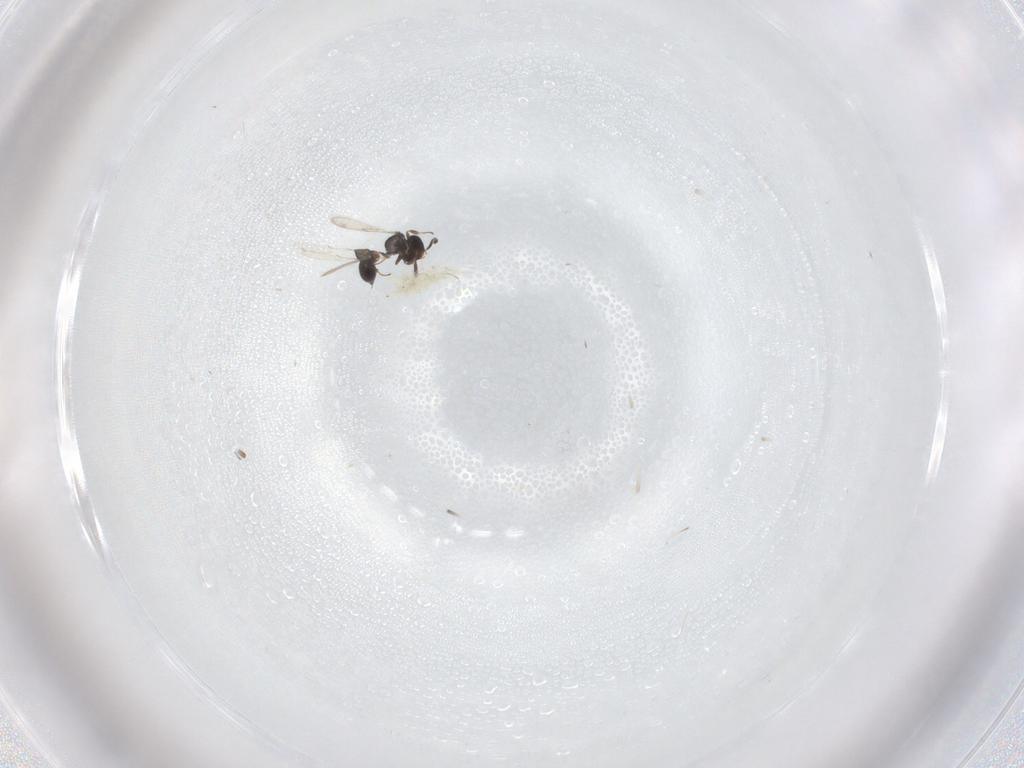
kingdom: Animalia
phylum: Arthropoda
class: Insecta
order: Hymenoptera
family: Scelionidae
